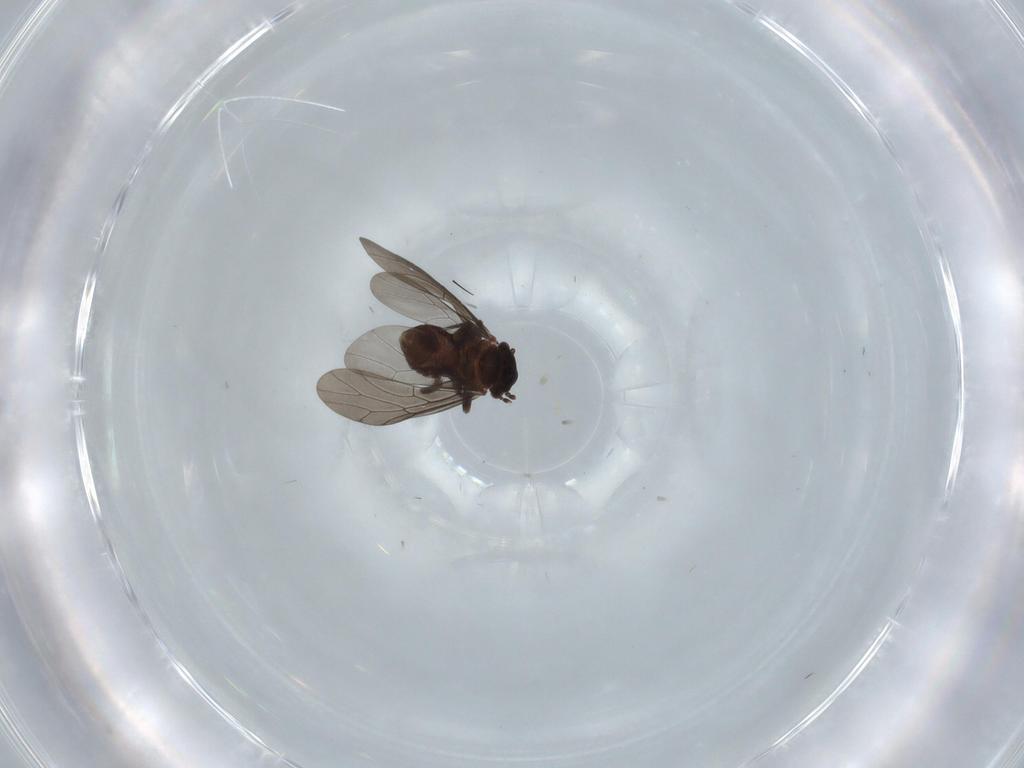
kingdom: Animalia
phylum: Arthropoda
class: Insecta
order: Psocodea
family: Ectopsocidae
